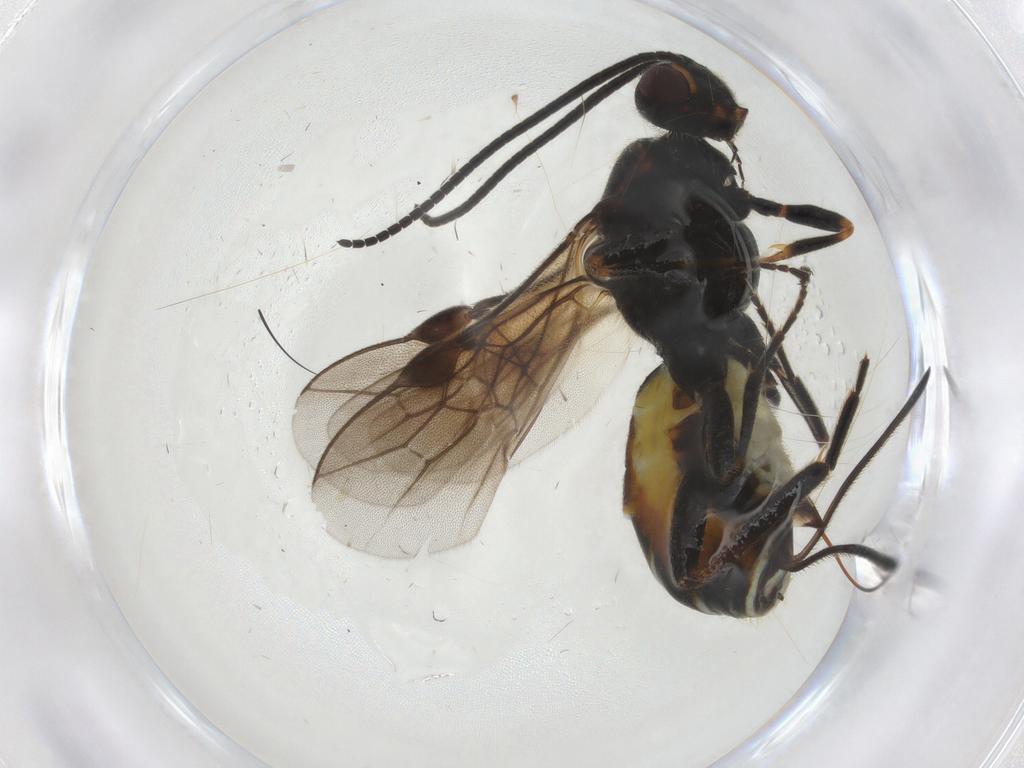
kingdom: Animalia
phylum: Arthropoda
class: Insecta
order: Hymenoptera
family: Braconidae
